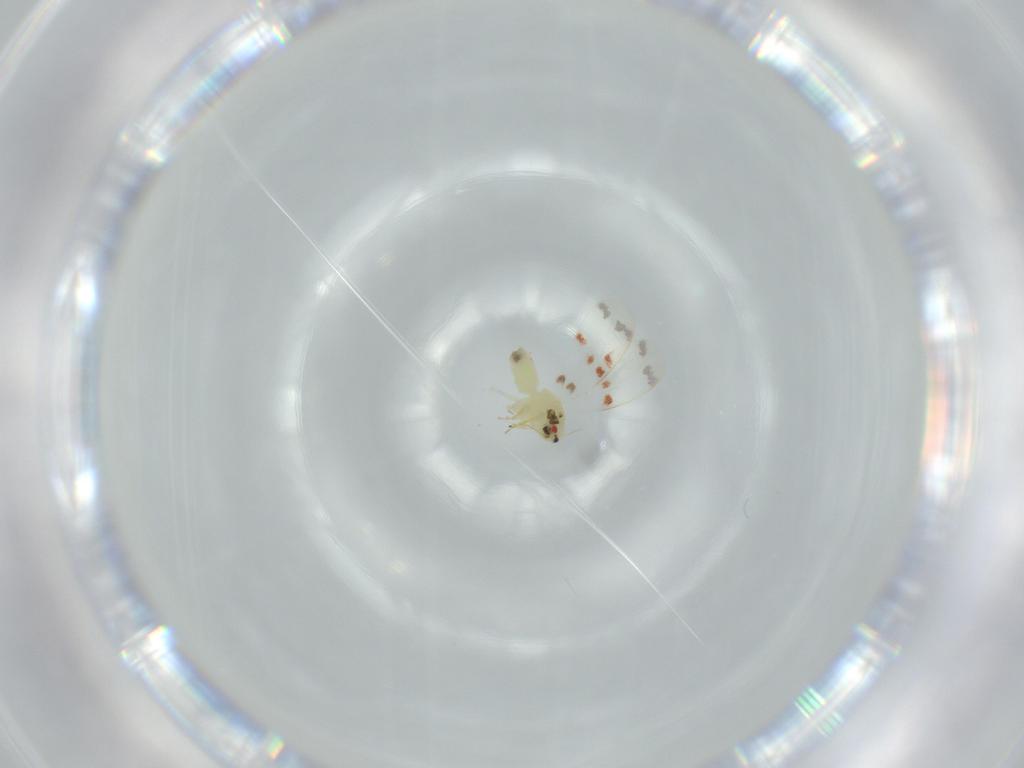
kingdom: Animalia
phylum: Arthropoda
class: Insecta
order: Hemiptera
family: Aleyrodidae
